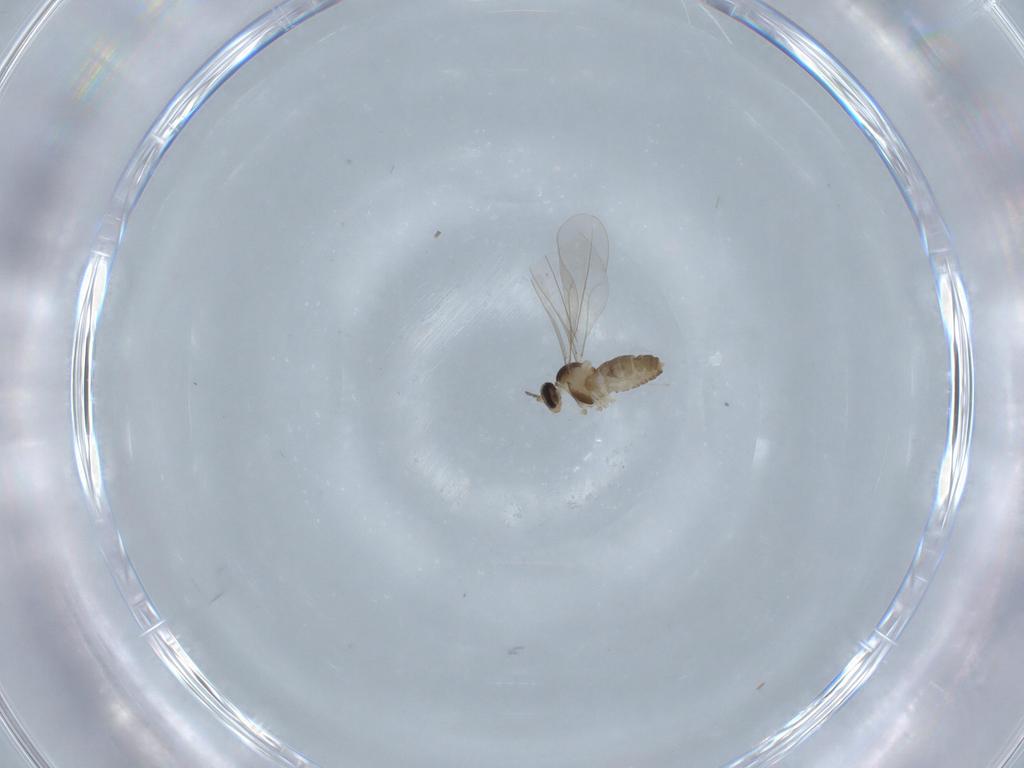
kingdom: Animalia
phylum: Arthropoda
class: Insecta
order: Diptera
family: Cecidomyiidae
